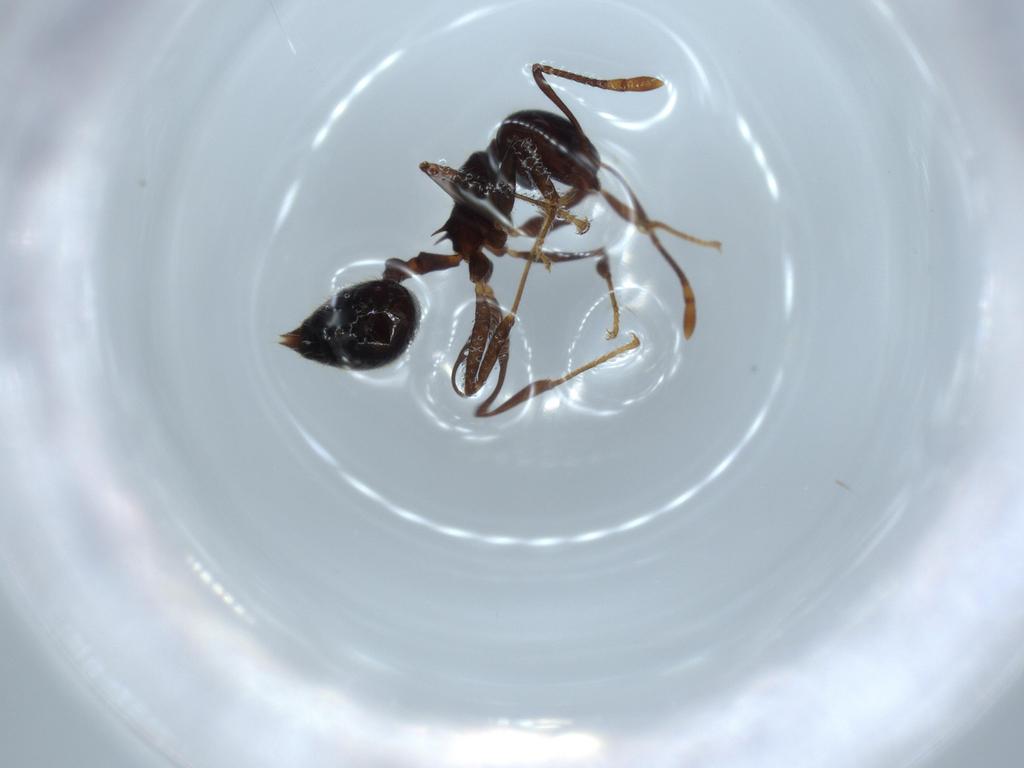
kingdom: Animalia
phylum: Arthropoda
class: Insecta
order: Hymenoptera
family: Formicidae
